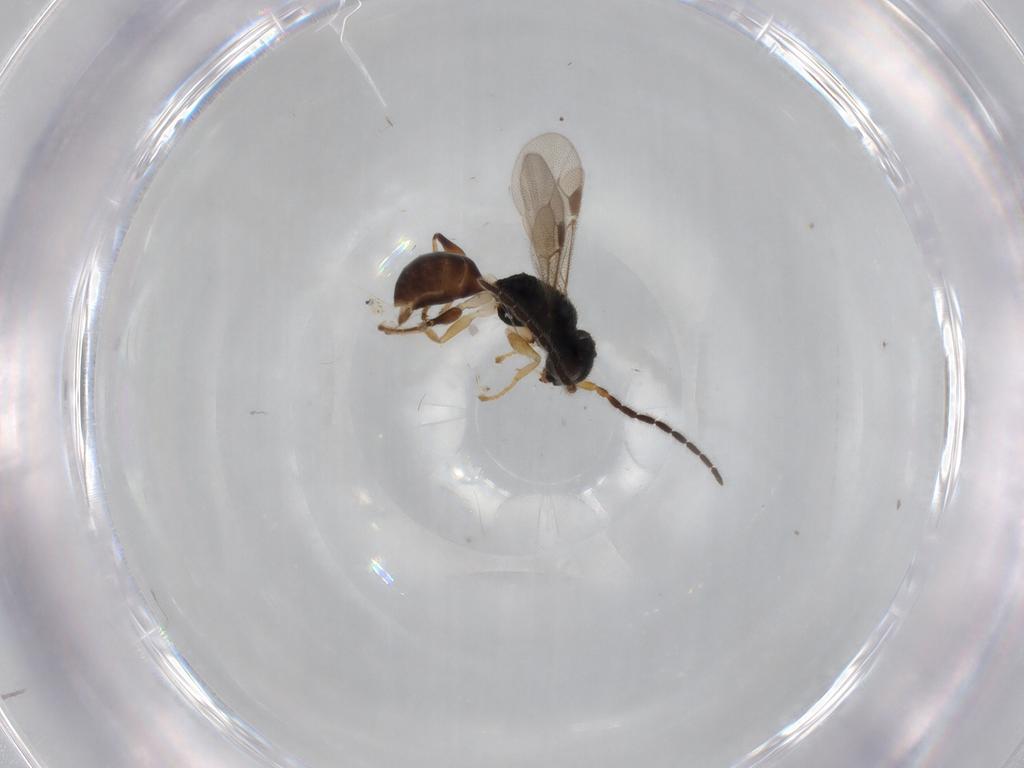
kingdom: Animalia
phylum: Arthropoda
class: Insecta
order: Hymenoptera
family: Dryinidae
